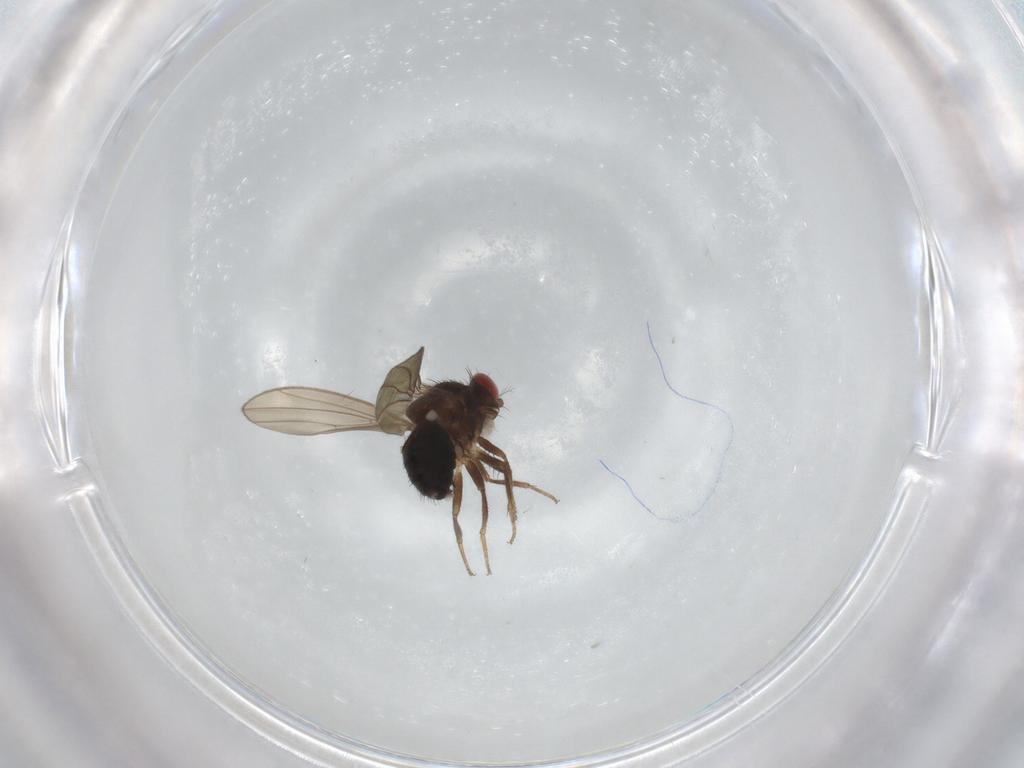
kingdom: Animalia
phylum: Arthropoda
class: Insecta
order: Diptera
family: Drosophilidae
